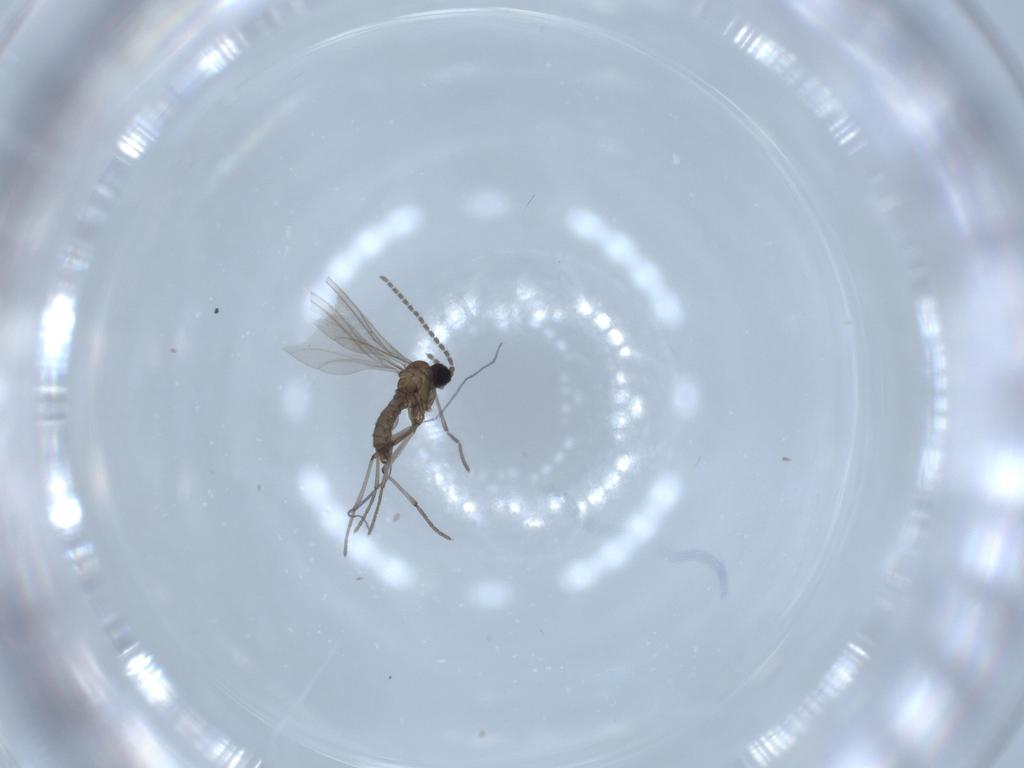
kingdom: Animalia
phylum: Arthropoda
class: Insecta
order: Diptera
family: Sciaridae
